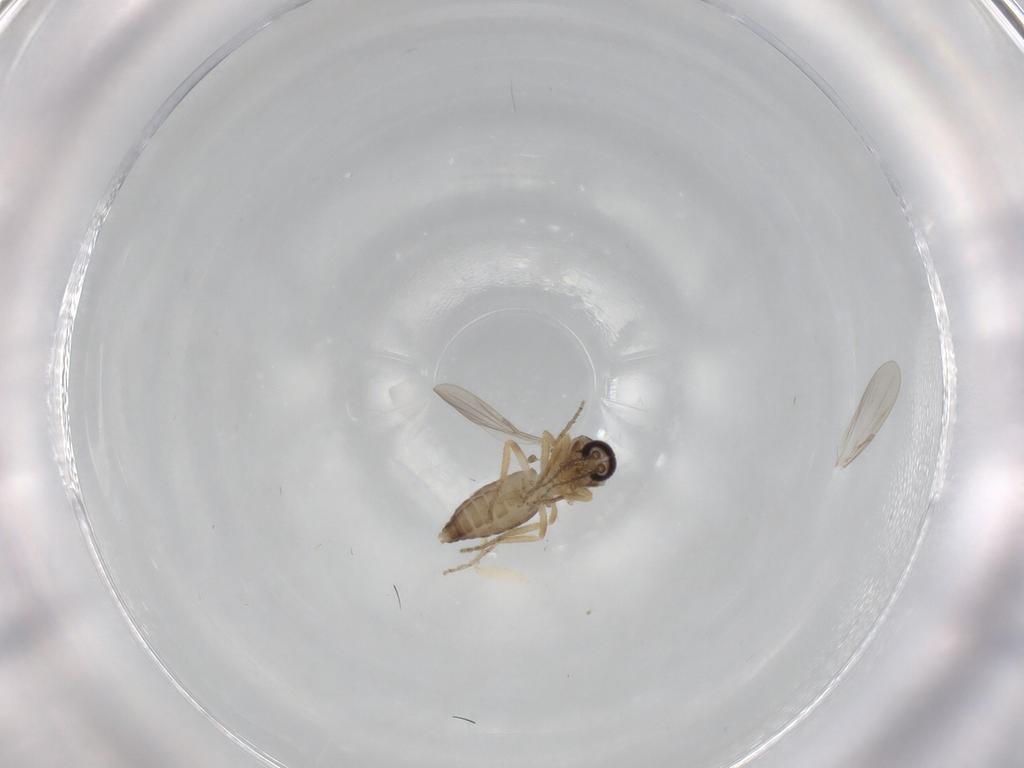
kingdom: Animalia
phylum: Arthropoda
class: Insecta
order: Diptera
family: Ceratopogonidae
